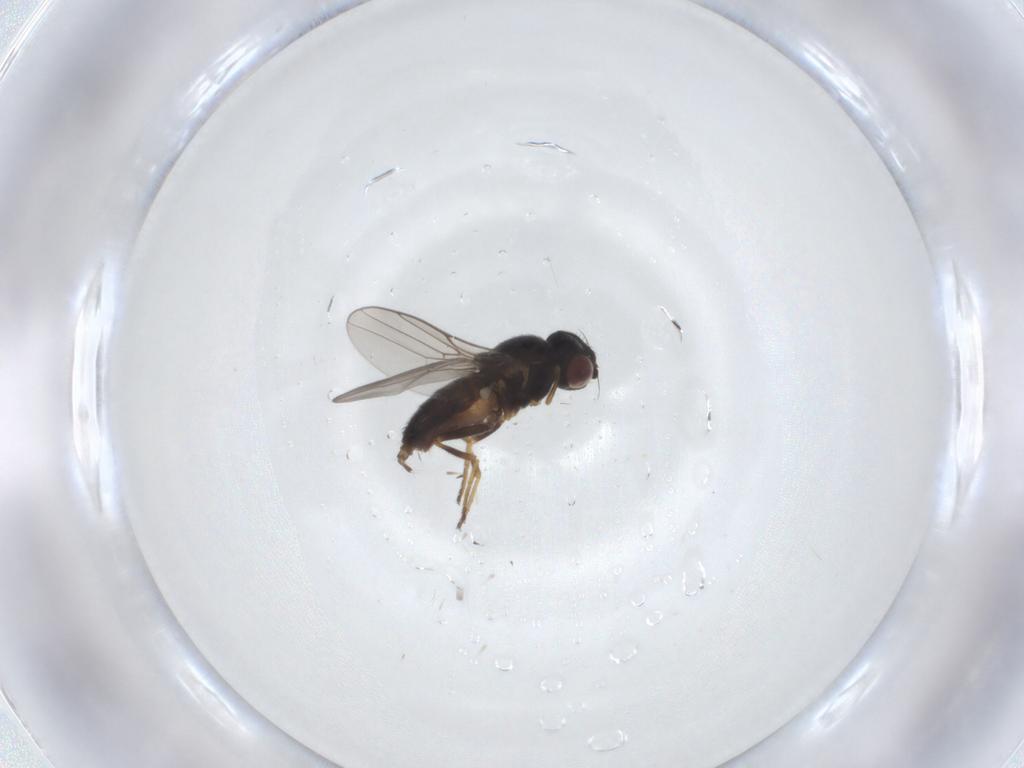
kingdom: Animalia
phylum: Arthropoda
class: Insecta
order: Diptera
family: Chloropidae
